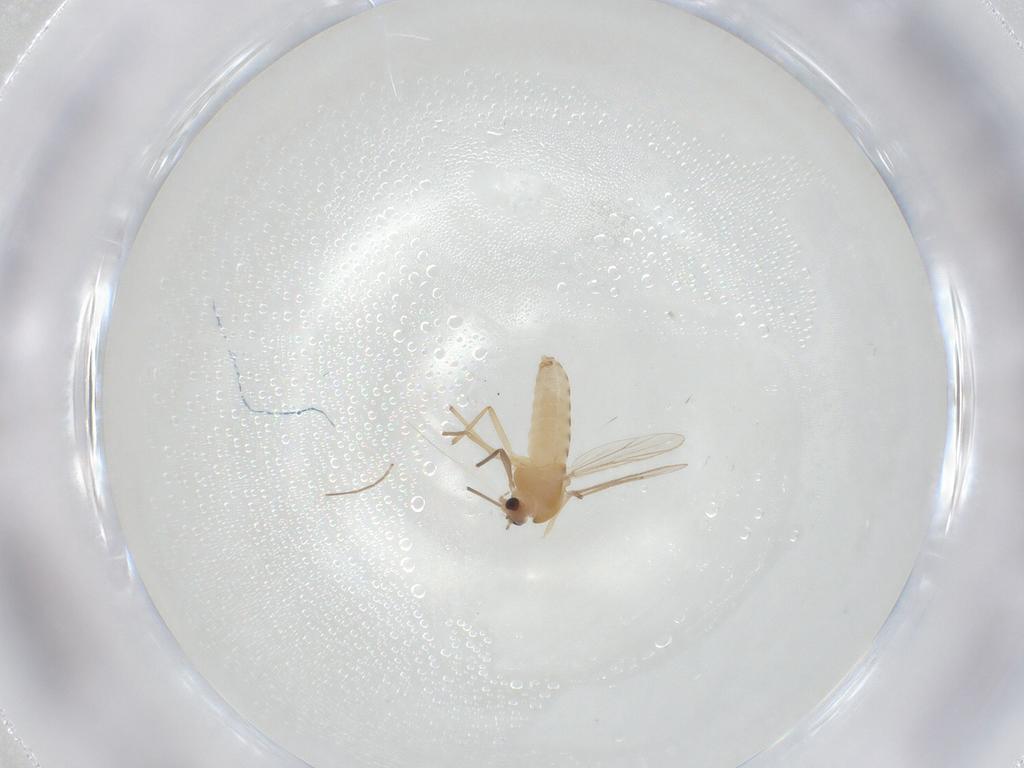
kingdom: Animalia
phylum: Arthropoda
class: Insecta
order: Diptera
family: Chironomidae
